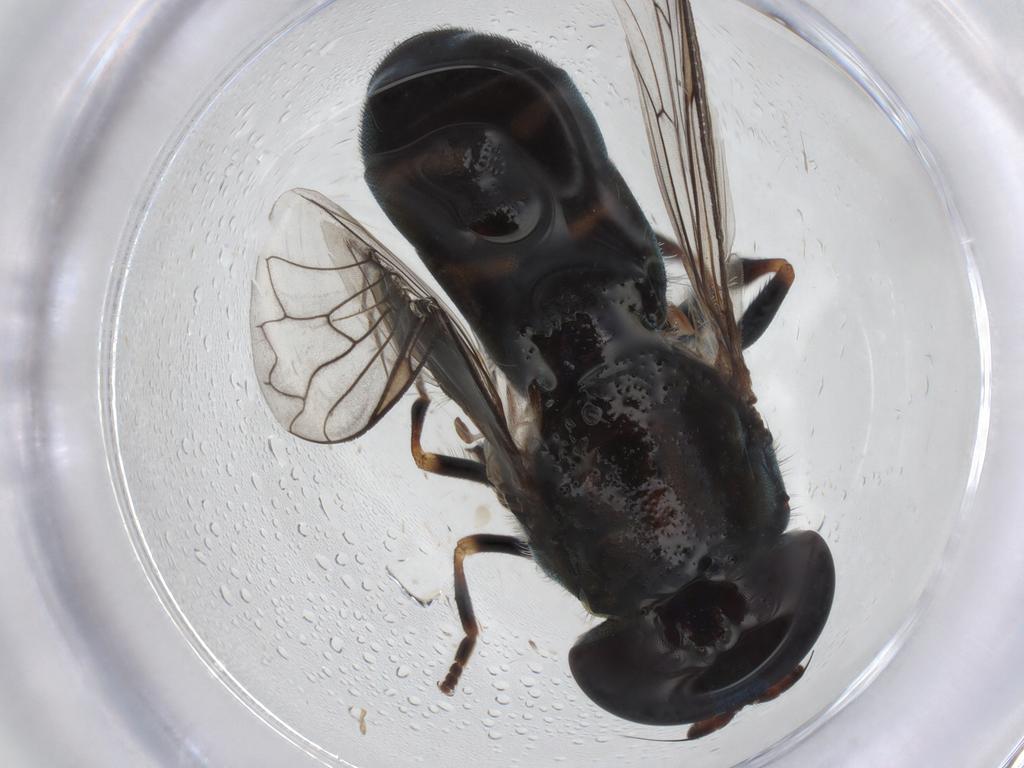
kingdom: Animalia
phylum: Arthropoda
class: Insecta
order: Diptera
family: Syrphidae
